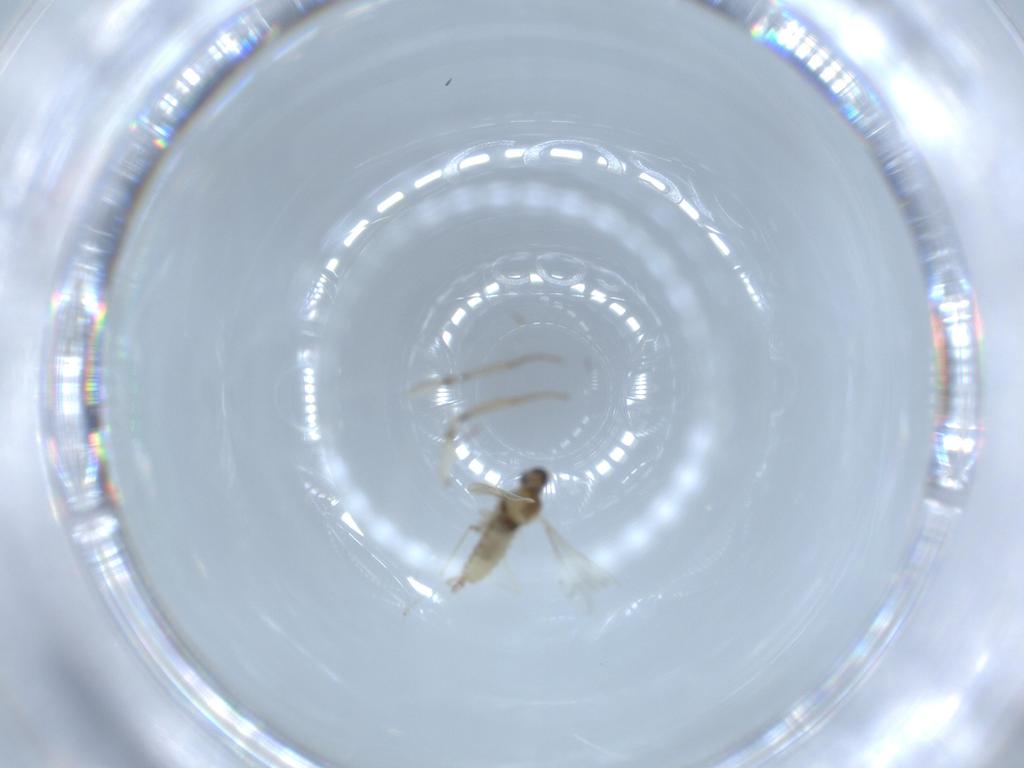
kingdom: Animalia
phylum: Arthropoda
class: Insecta
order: Diptera
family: Drosophilidae
